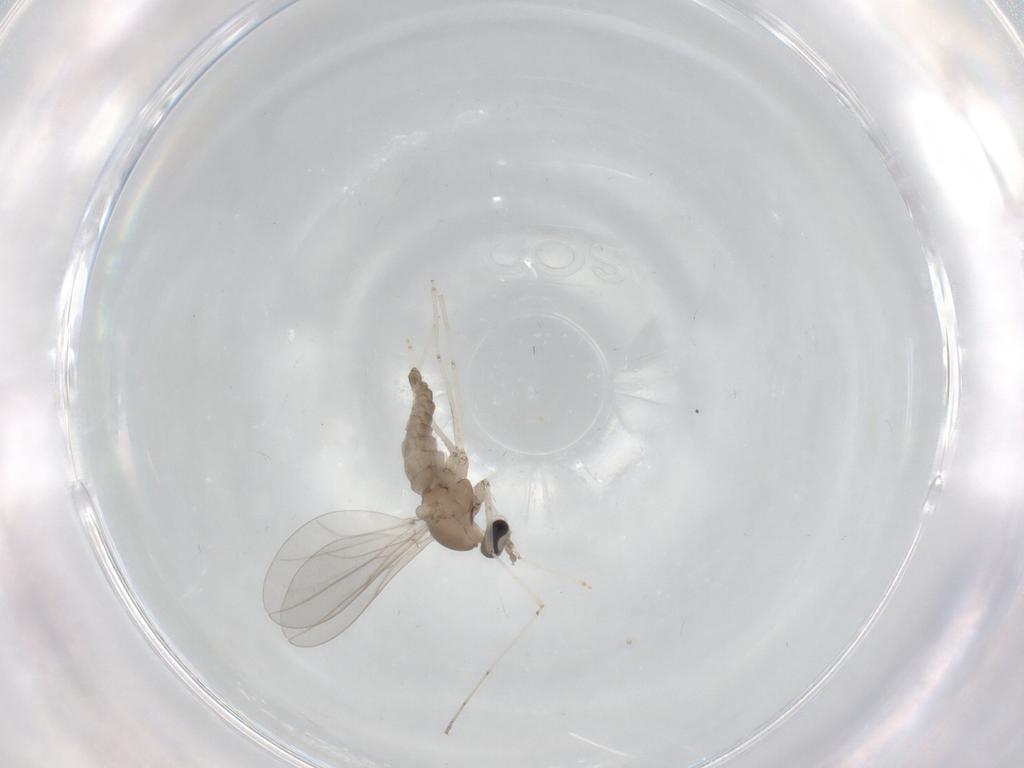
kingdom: Animalia
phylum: Arthropoda
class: Insecta
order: Diptera
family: Cecidomyiidae
